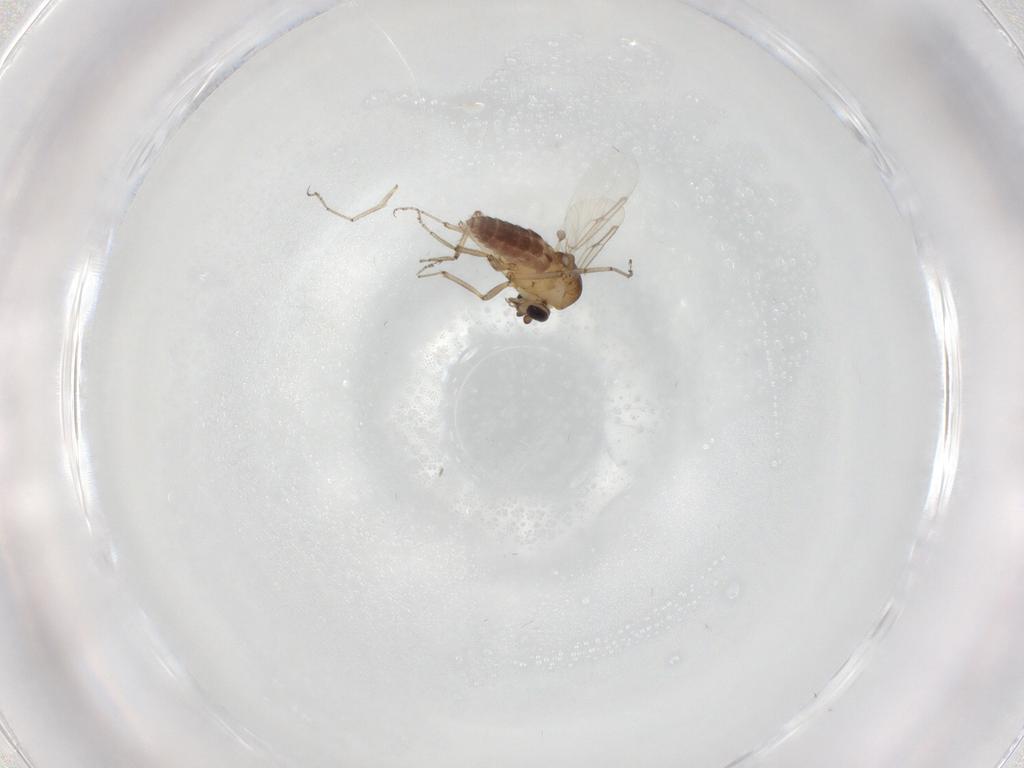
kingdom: Animalia
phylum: Arthropoda
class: Insecta
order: Diptera
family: Ceratopogonidae
